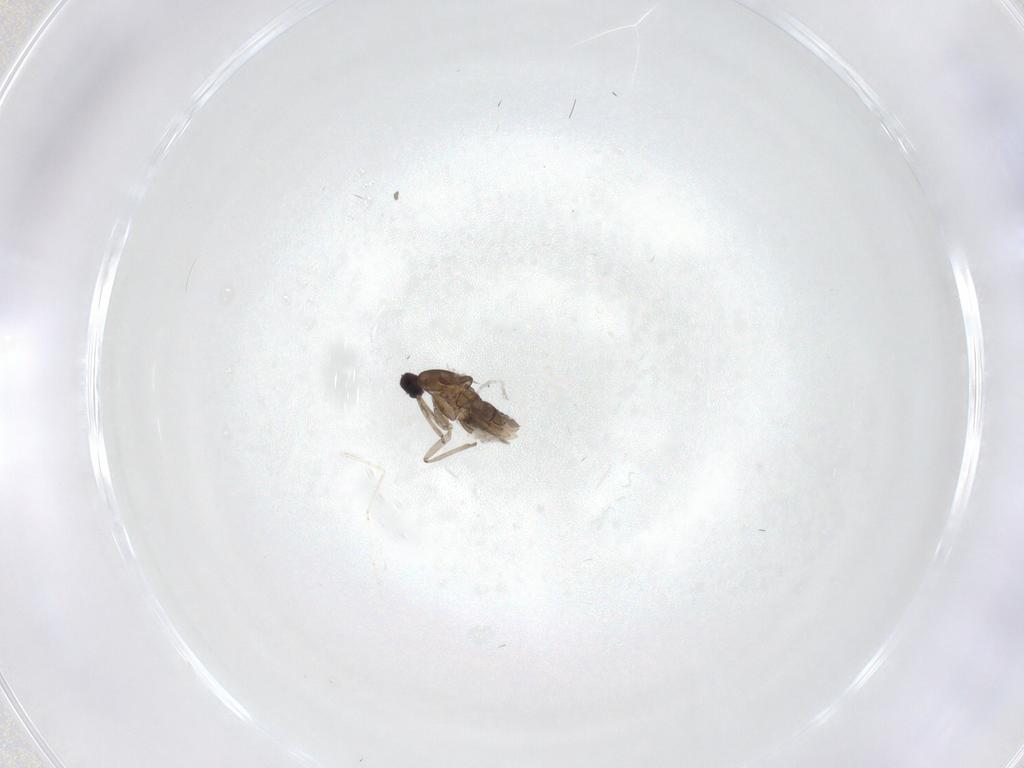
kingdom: Animalia
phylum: Arthropoda
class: Insecta
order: Diptera
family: Cecidomyiidae
